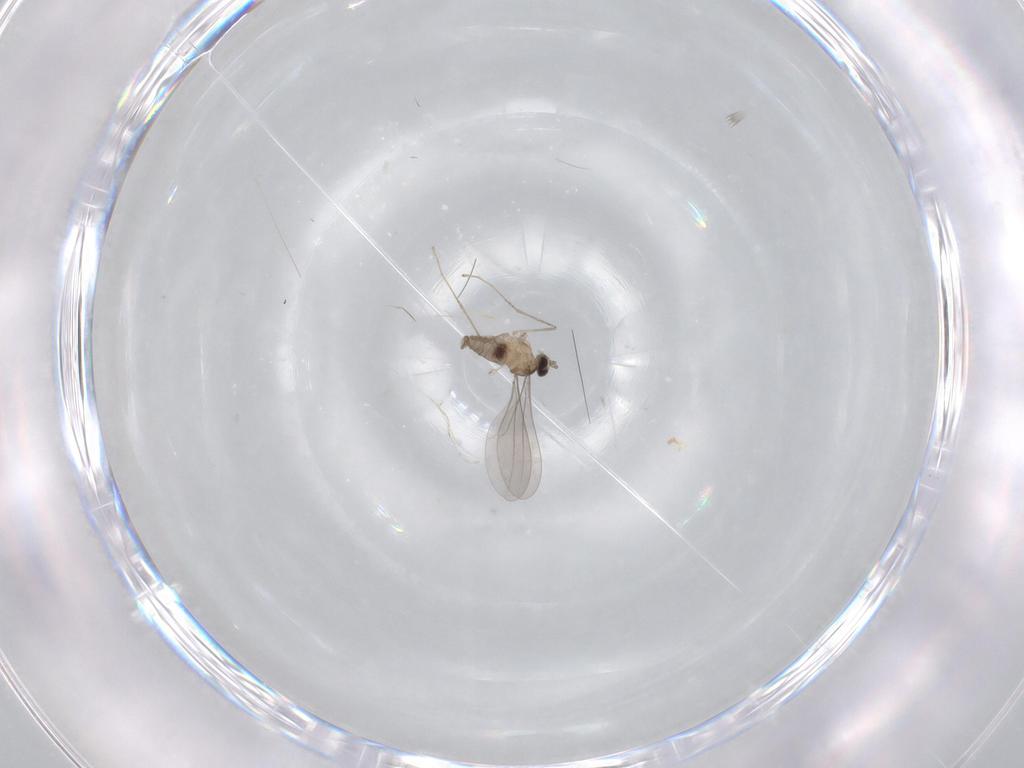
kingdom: Animalia
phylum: Arthropoda
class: Insecta
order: Diptera
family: Cecidomyiidae
